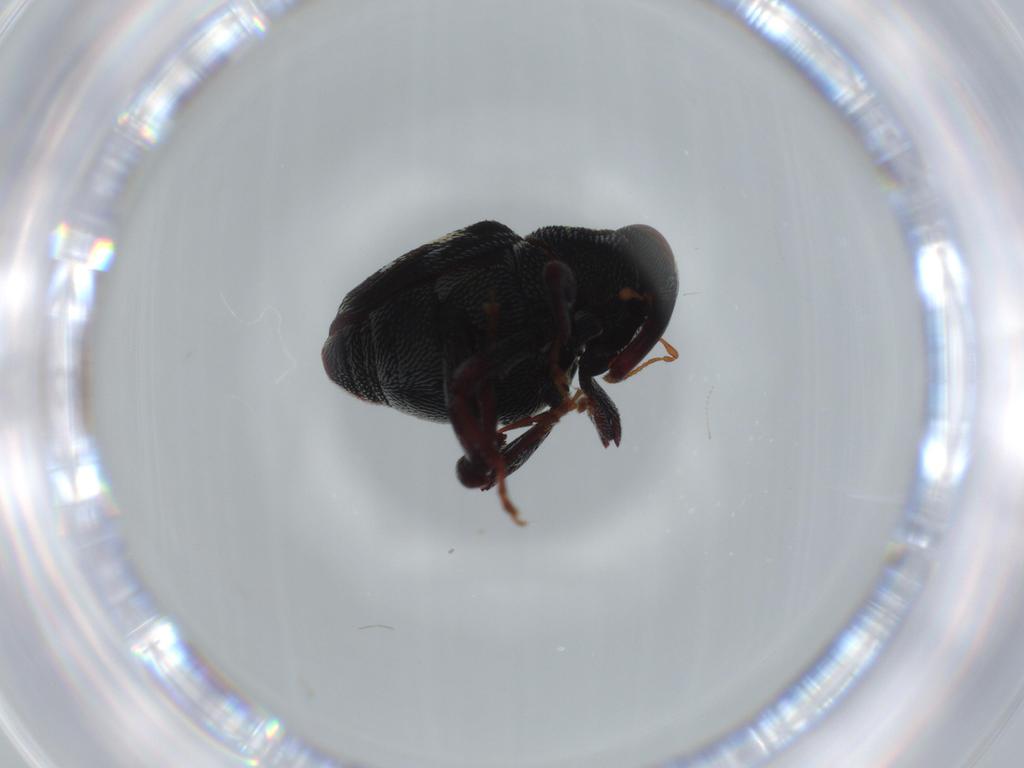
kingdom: Animalia
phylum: Arthropoda
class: Insecta
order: Coleoptera
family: Curculionidae
